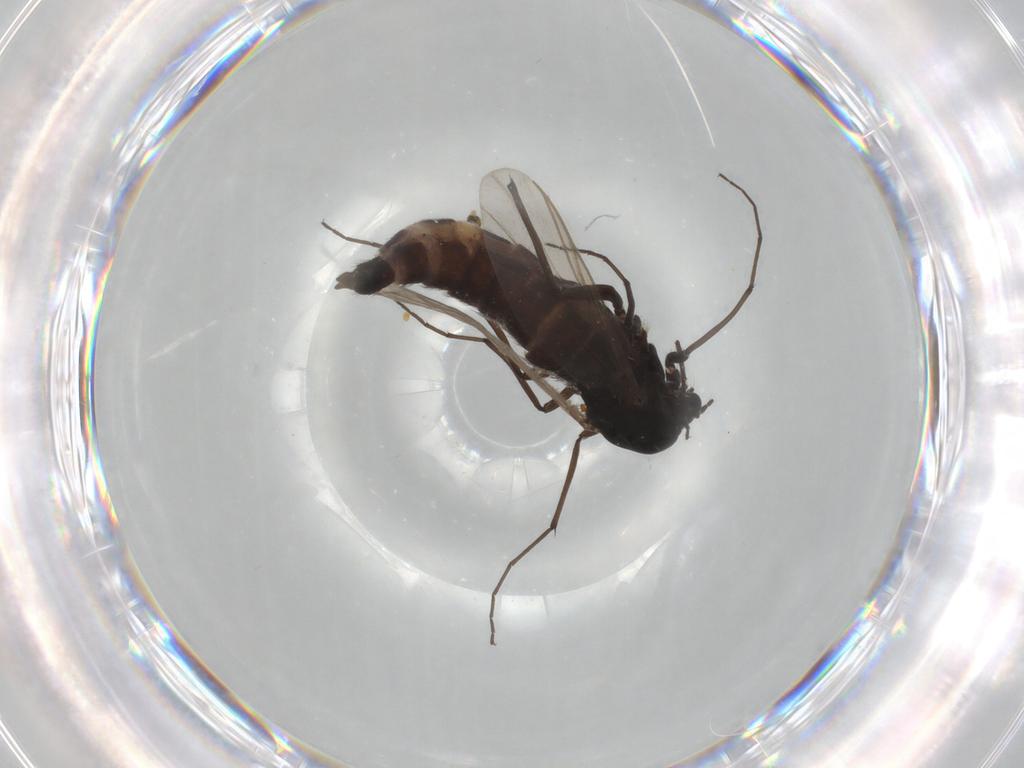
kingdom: Animalia
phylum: Arthropoda
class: Insecta
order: Diptera
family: Chironomidae
